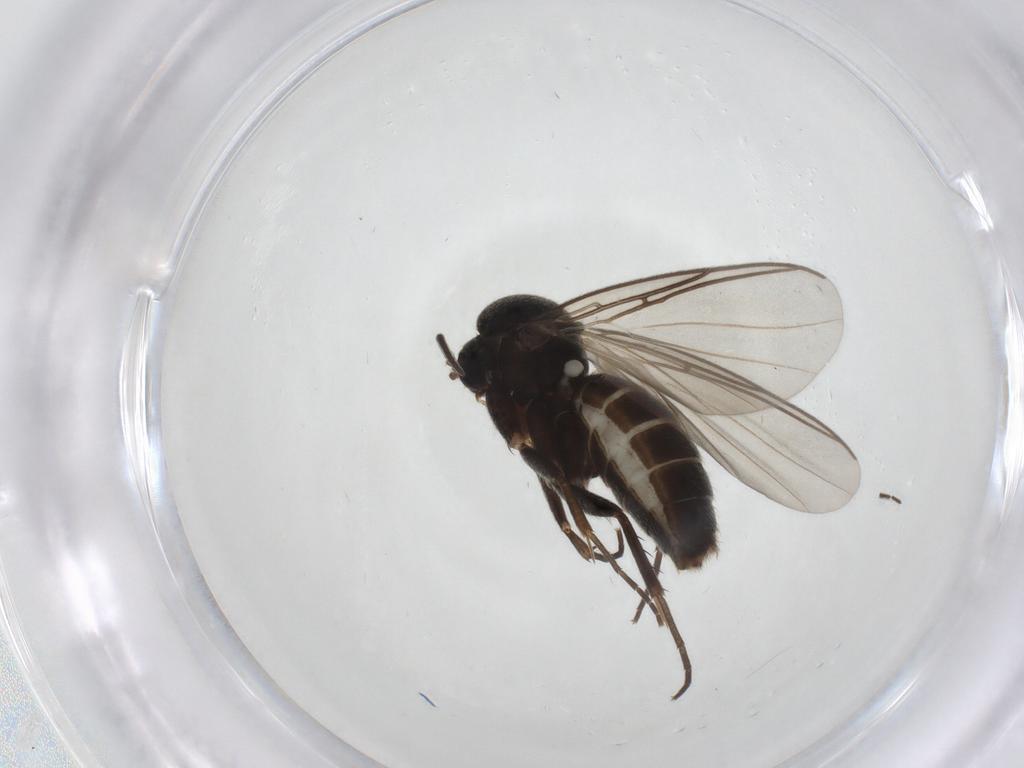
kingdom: Animalia
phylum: Arthropoda
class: Insecta
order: Diptera
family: Mycetophilidae
